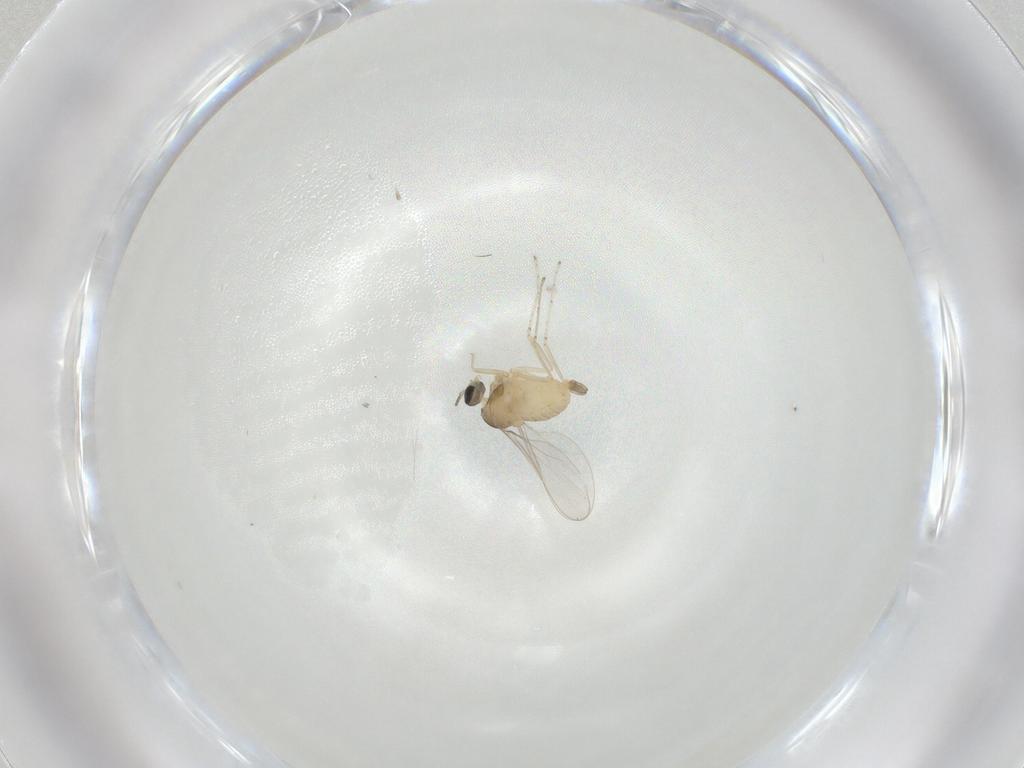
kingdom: Animalia
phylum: Arthropoda
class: Insecta
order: Diptera
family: Cecidomyiidae
